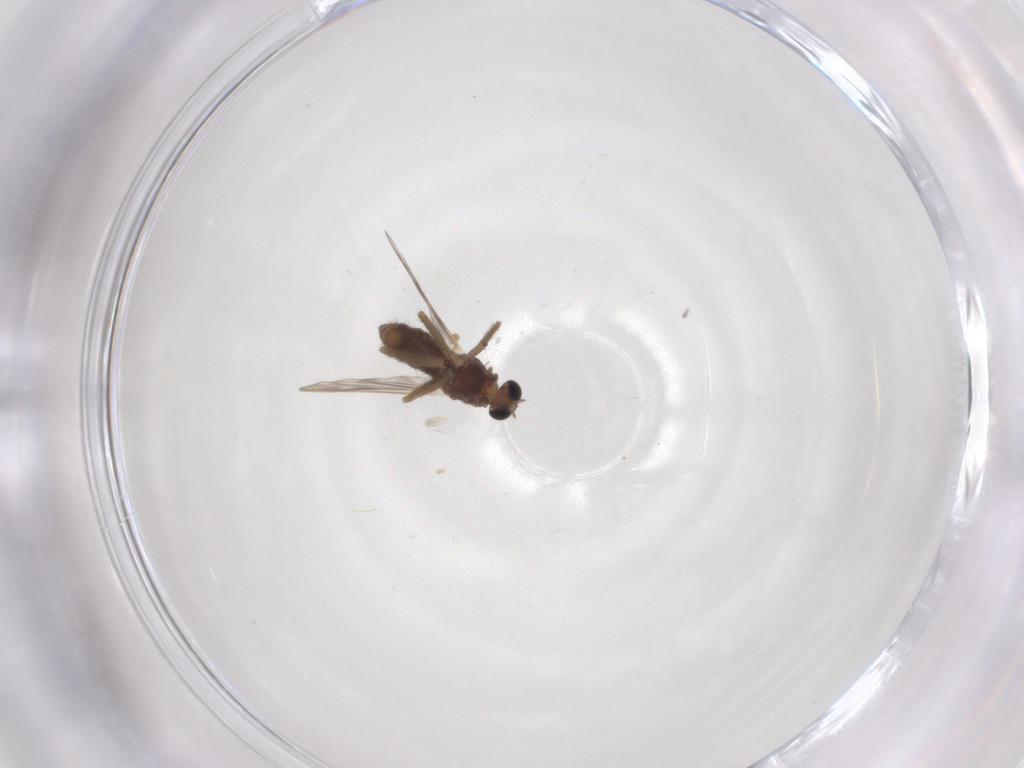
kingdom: Animalia
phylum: Arthropoda
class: Insecta
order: Diptera
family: Chironomidae
